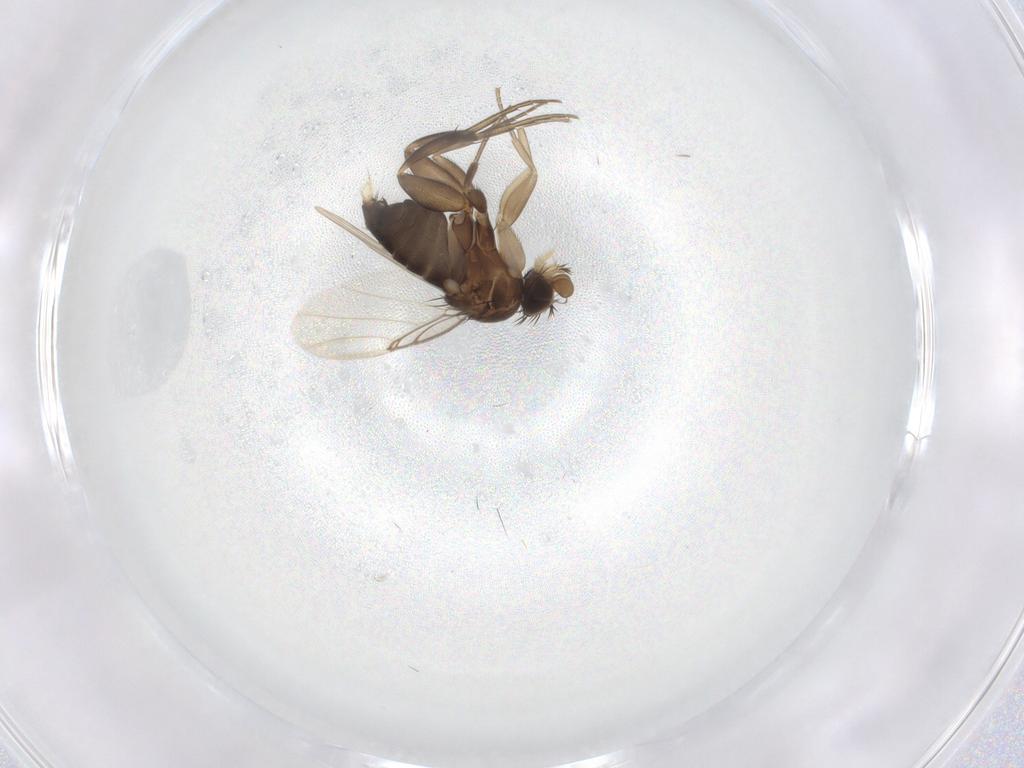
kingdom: Animalia
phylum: Arthropoda
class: Insecta
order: Diptera
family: Phoridae
